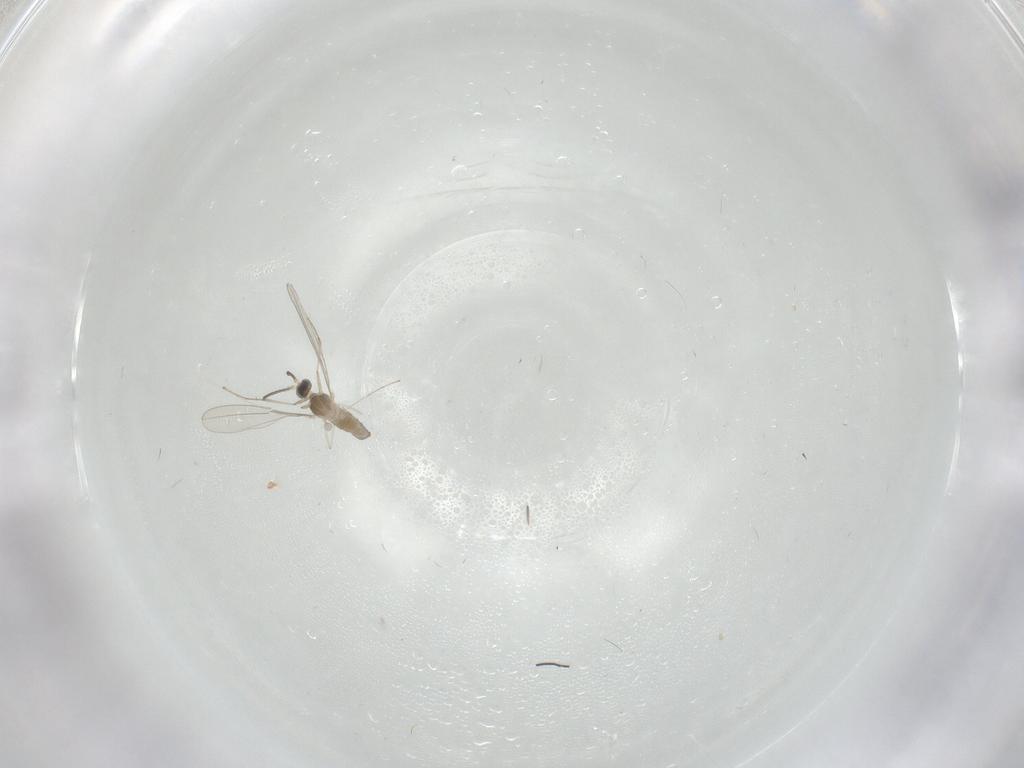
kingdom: Animalia
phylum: Arthropoda
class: Insecta
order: Diptera
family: Cecidomyiidae
